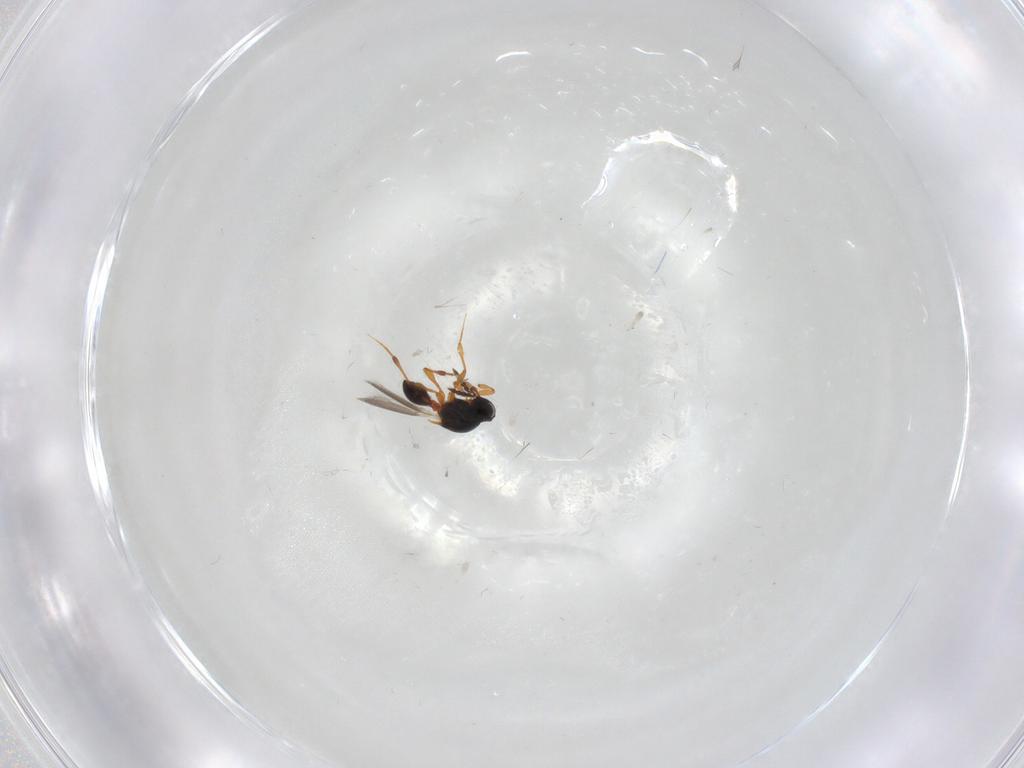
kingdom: Animalia
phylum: Arthropoda
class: Insecta
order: Hymenoptera
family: Platygastridae
